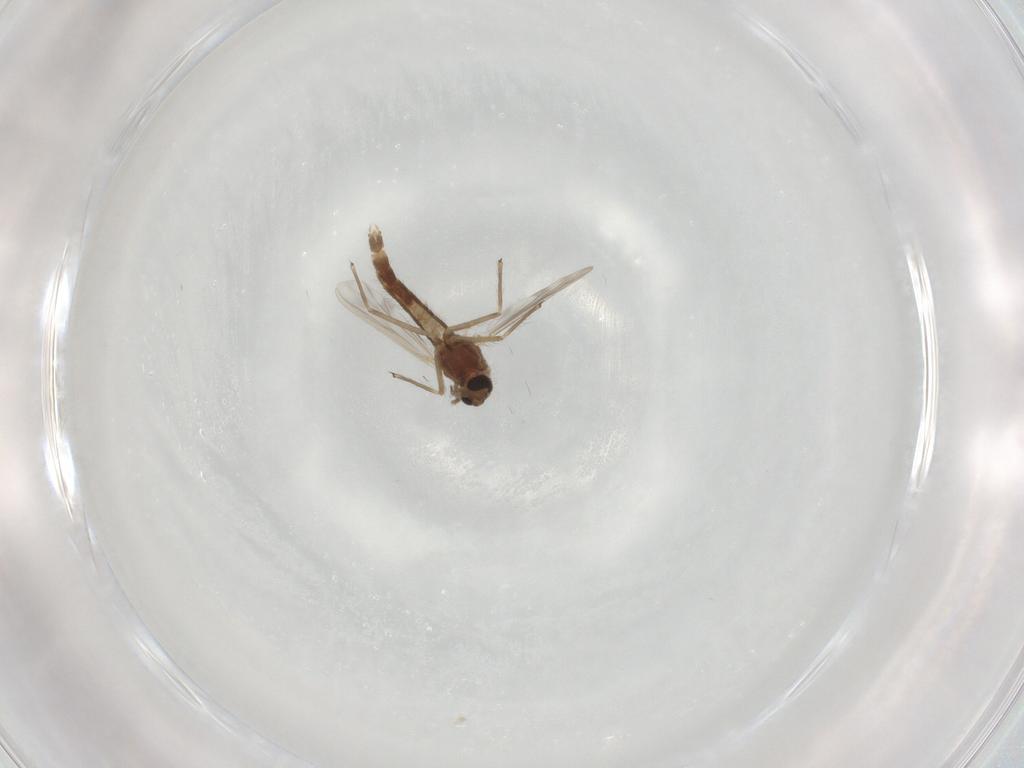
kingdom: Animalia
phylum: Arthropoda
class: Insecta
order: Diptera
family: Chironomidae
